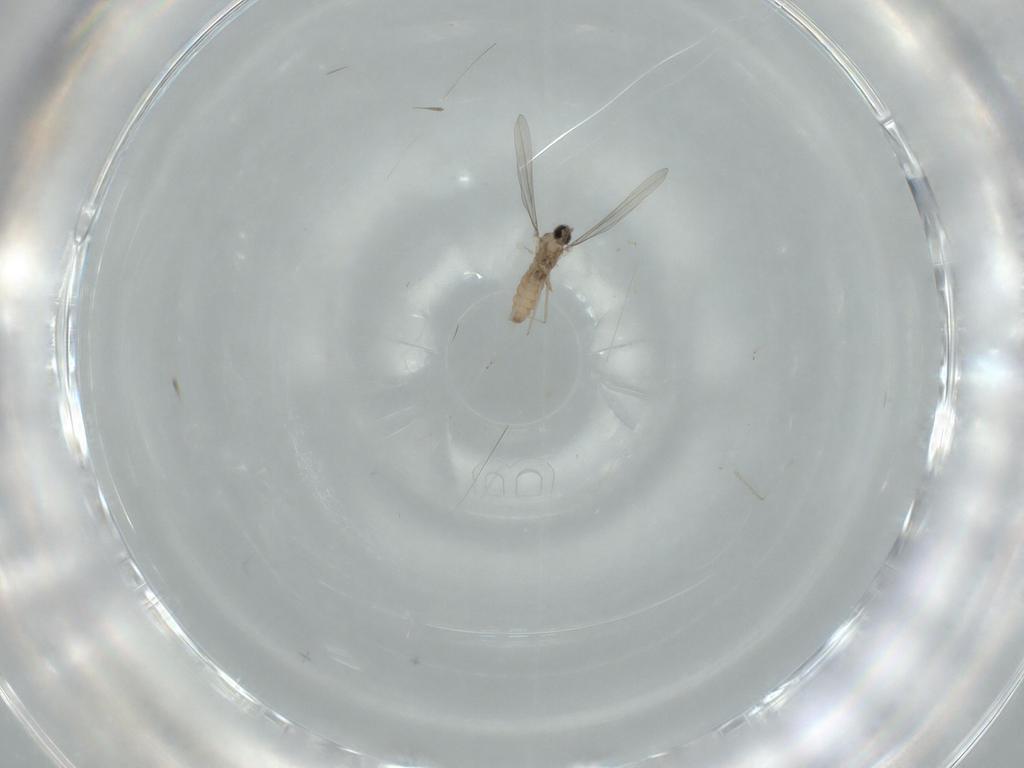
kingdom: Animalia
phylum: Arthropoda
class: Insecta
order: Diptera
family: Cecidomyiidae
